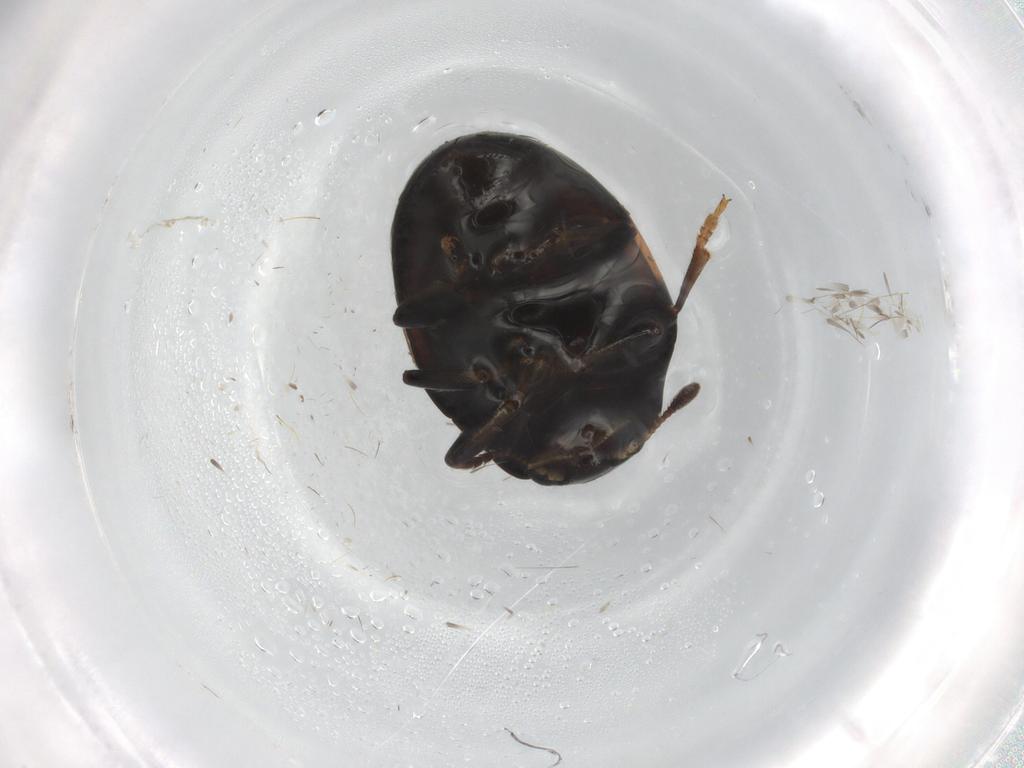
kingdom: Animalia
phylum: Arthropoda
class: Insecta
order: Coleoptera
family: Erotylidae
